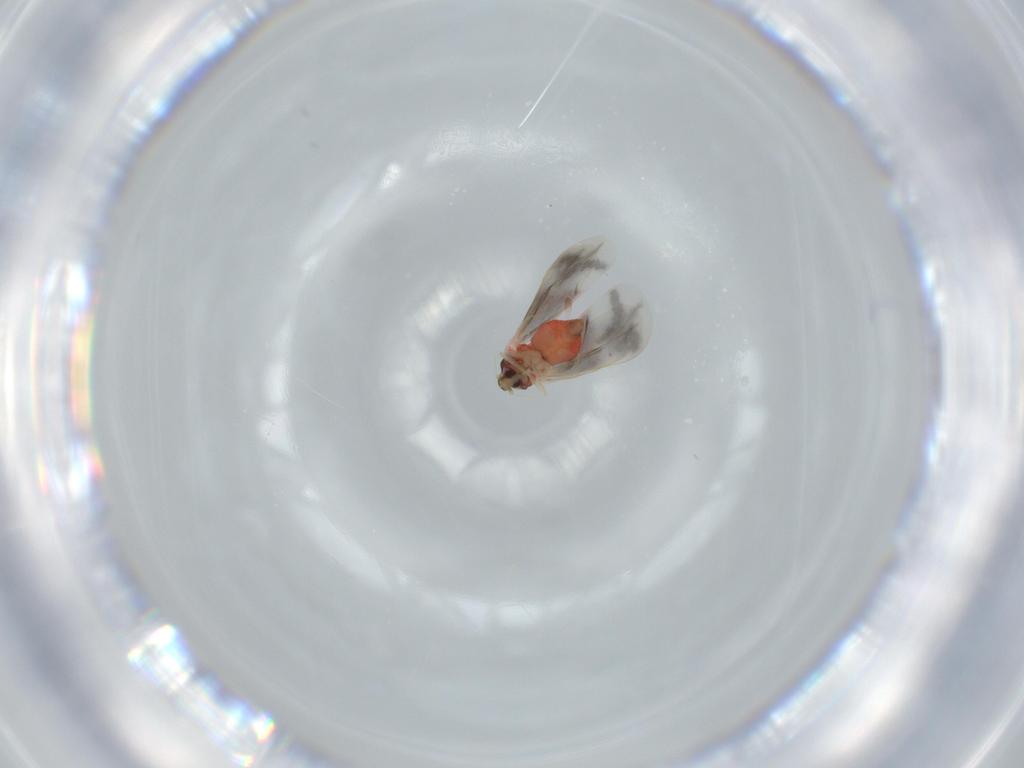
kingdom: Animalia
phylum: Arthropoda
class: Insecta
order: Hemiptera
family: Aleyrodidae
